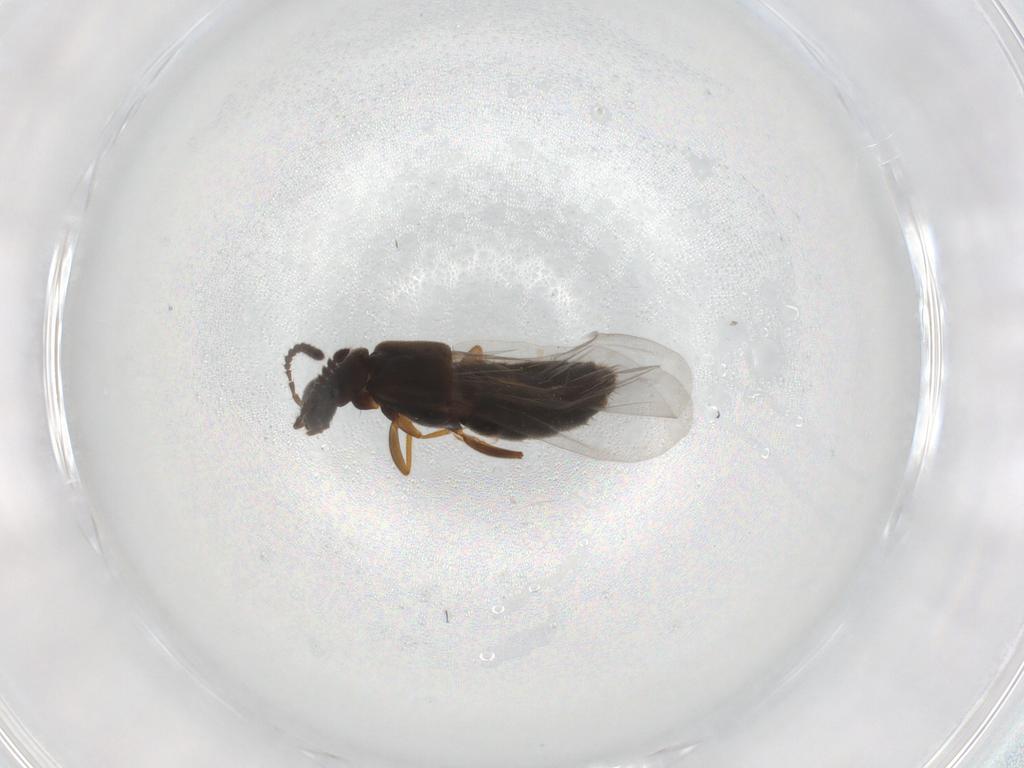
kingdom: Animalia
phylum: Arthropoda
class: Insecta
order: Coleoptera
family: Staphylinidae
